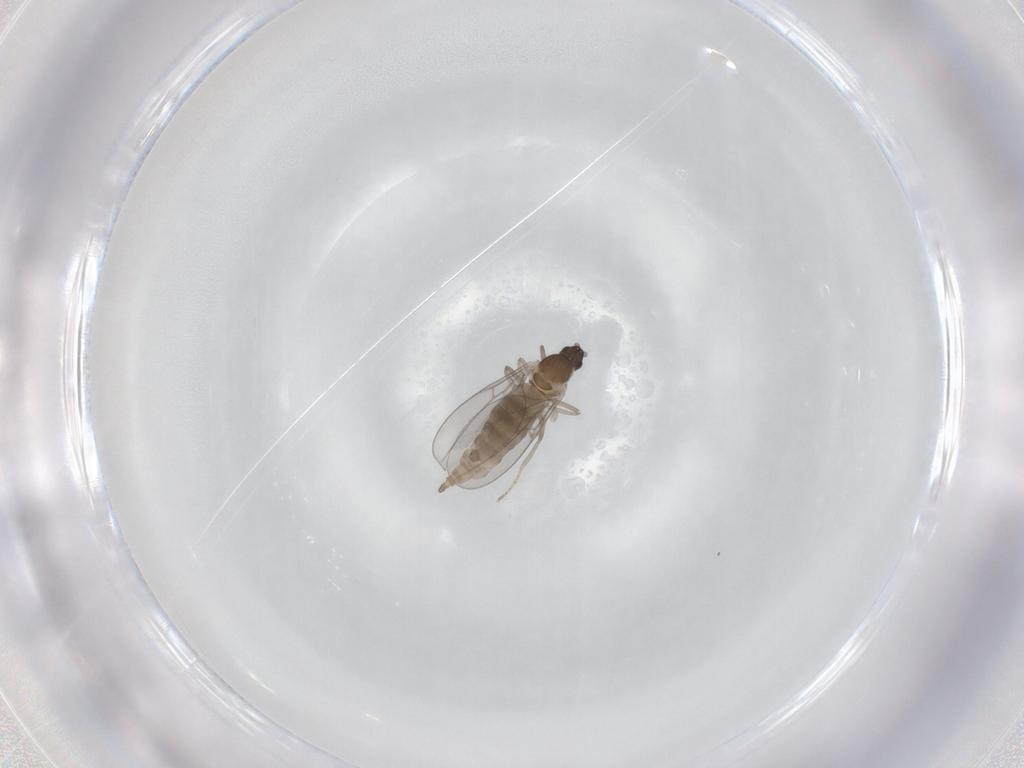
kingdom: Animalia
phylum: Arthropoda
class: Insecta
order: Diptera
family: Cecidomyiidae
